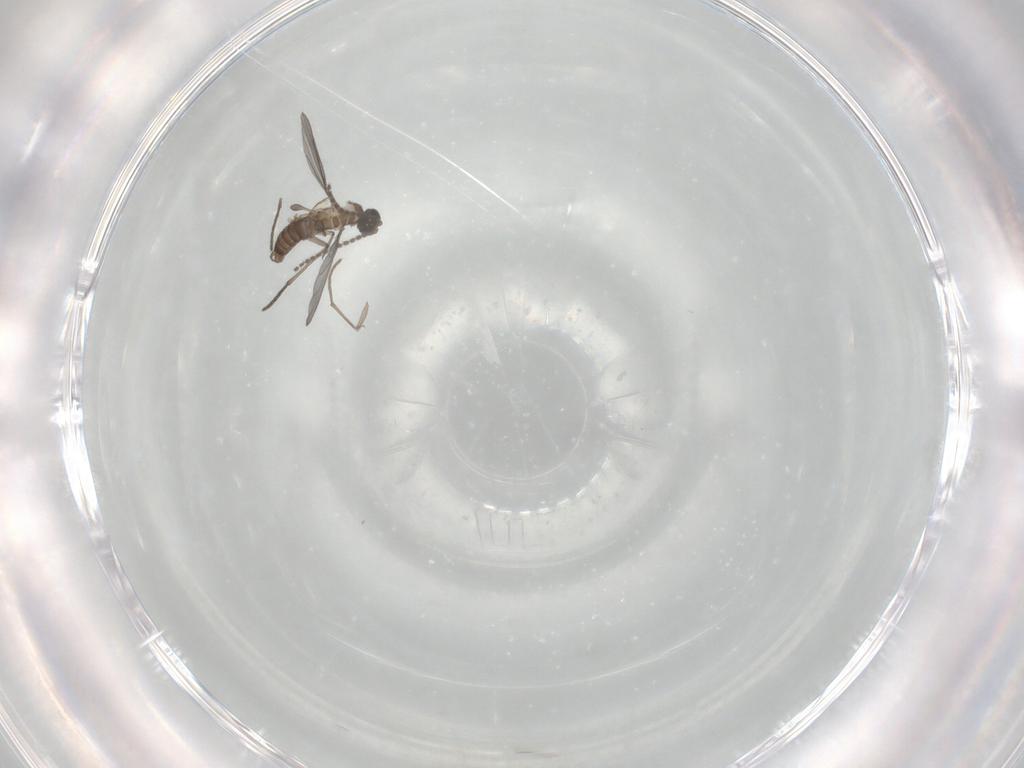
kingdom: Animalia
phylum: Arthropoda
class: Insecta
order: Diptera
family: Sciaridae
